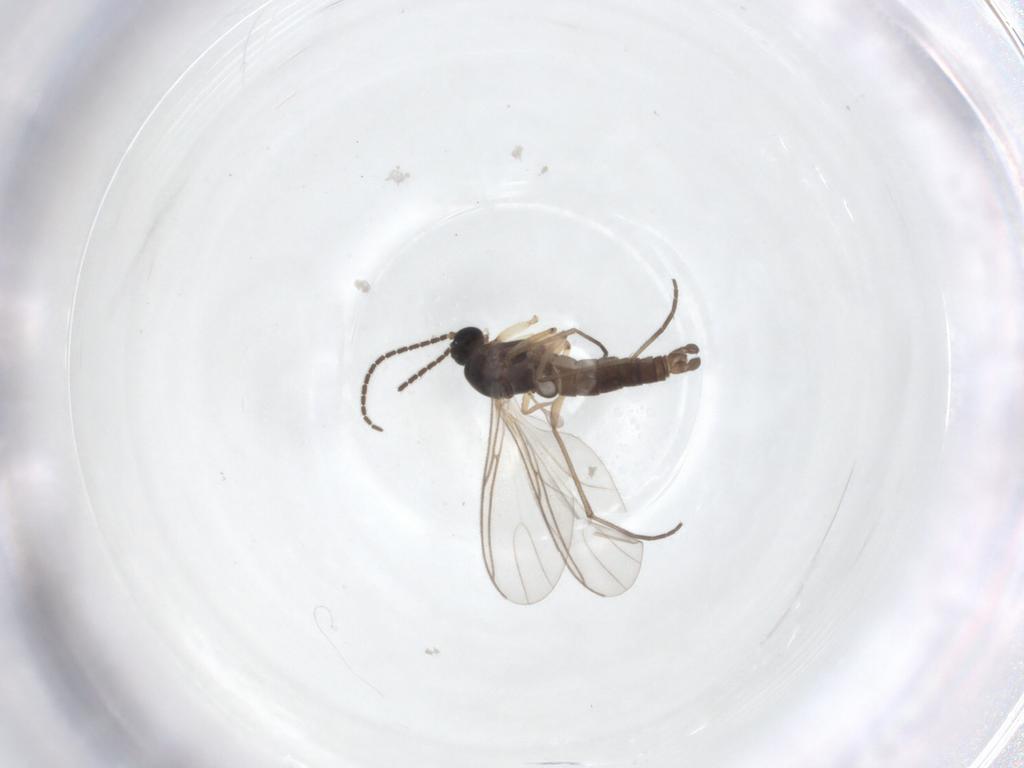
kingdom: Animalia
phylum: Arthropoda
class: Insecta
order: Diptera
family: Sciaridae
